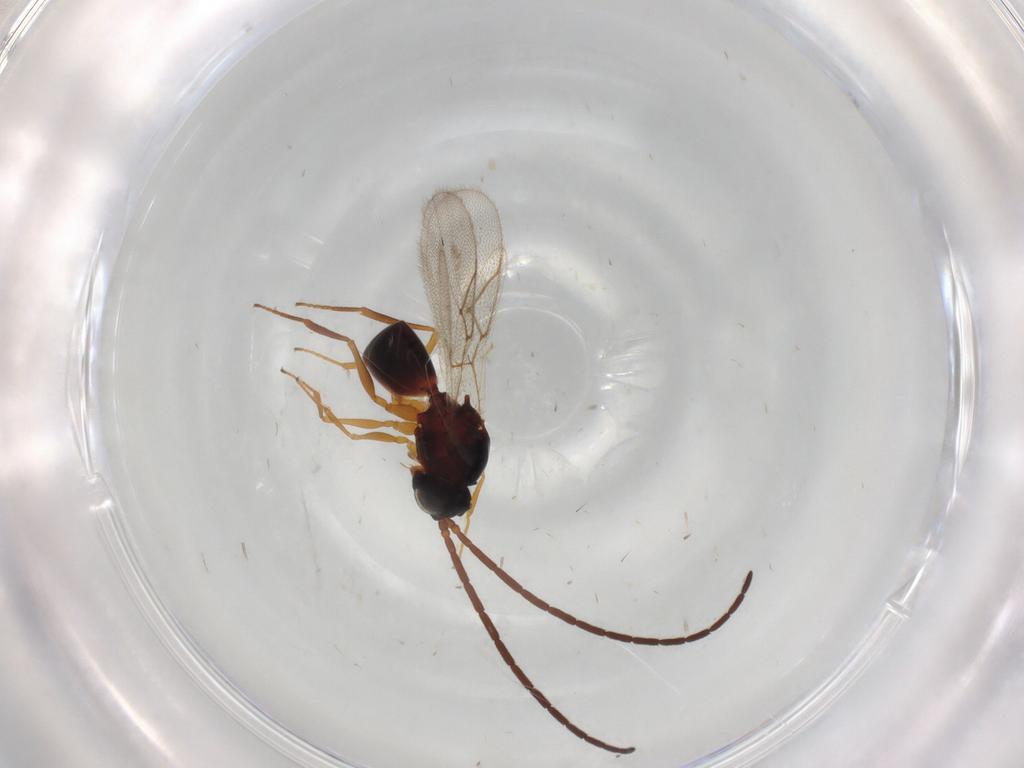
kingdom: Animalia
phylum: Arthropoda
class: Insecta
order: Hymenoptera
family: Figitidae
